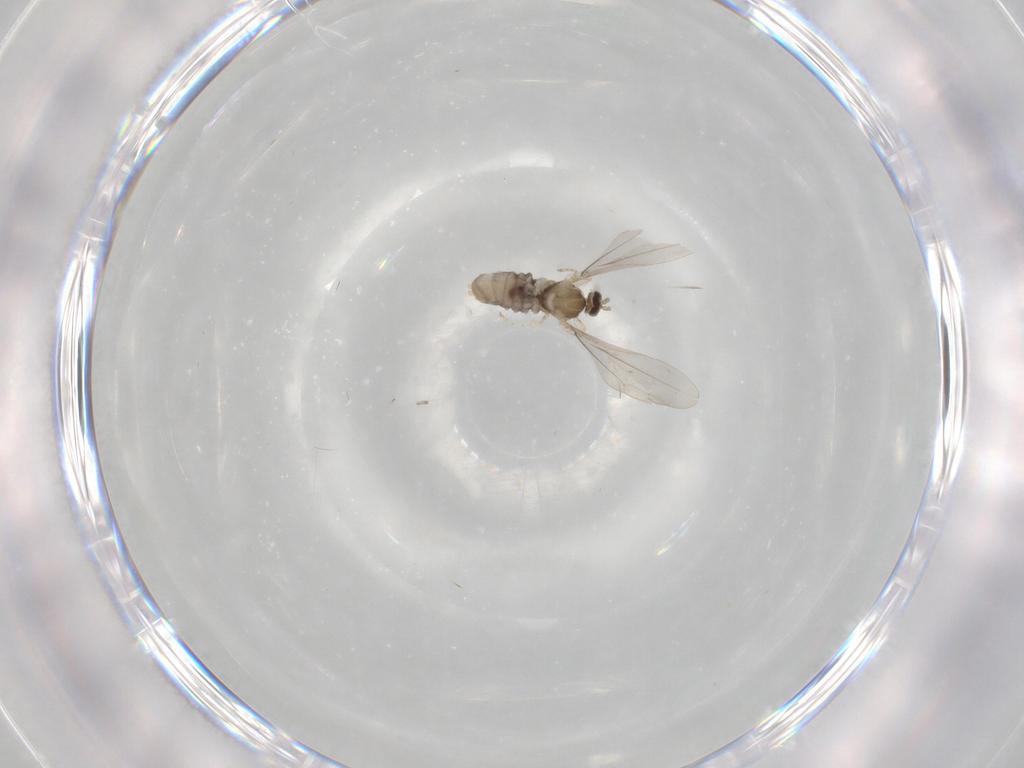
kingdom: Animalia
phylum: Arthropoda
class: Insecta
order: Diptera
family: Cecidomyiidae
